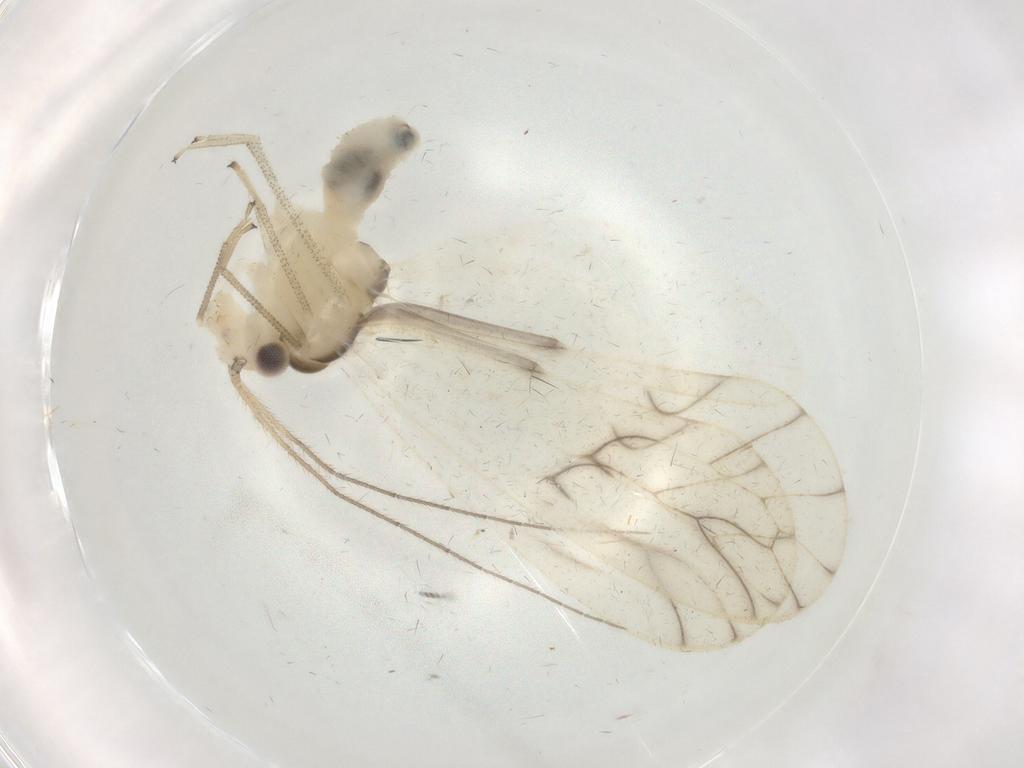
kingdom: Animalia
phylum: Arthropoda
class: Insecta
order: Psocodea
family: Caeciliusidae
